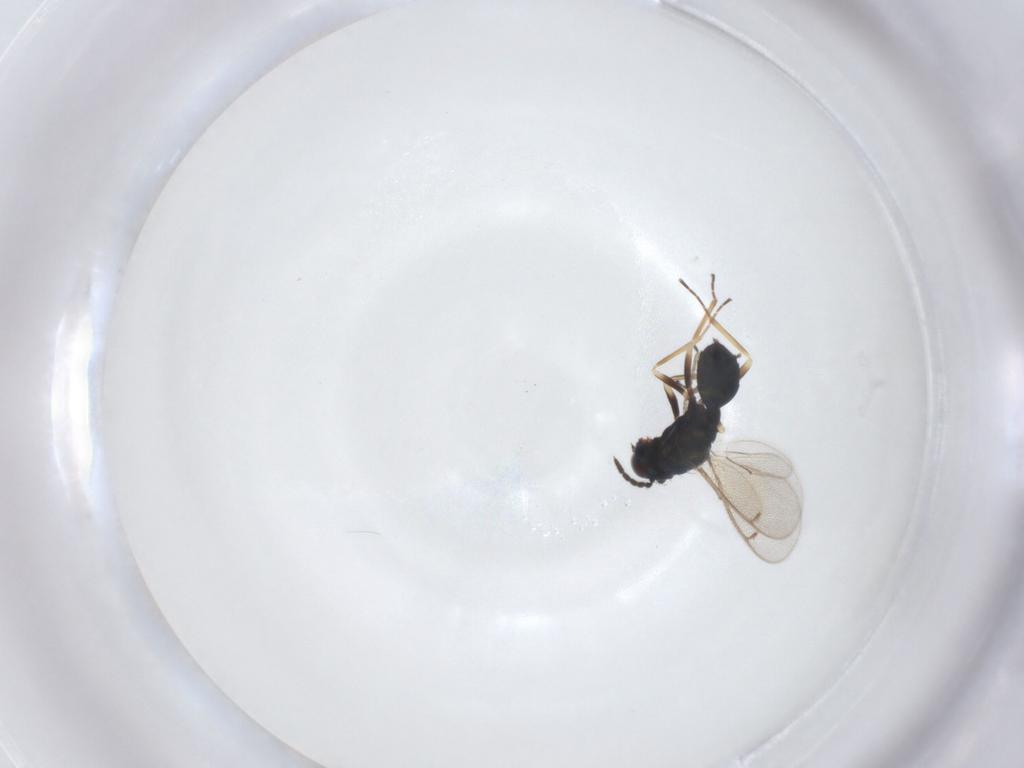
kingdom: Animalia
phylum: Arthropoda
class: Insecta
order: Hymenoptera
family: Eulophidae
